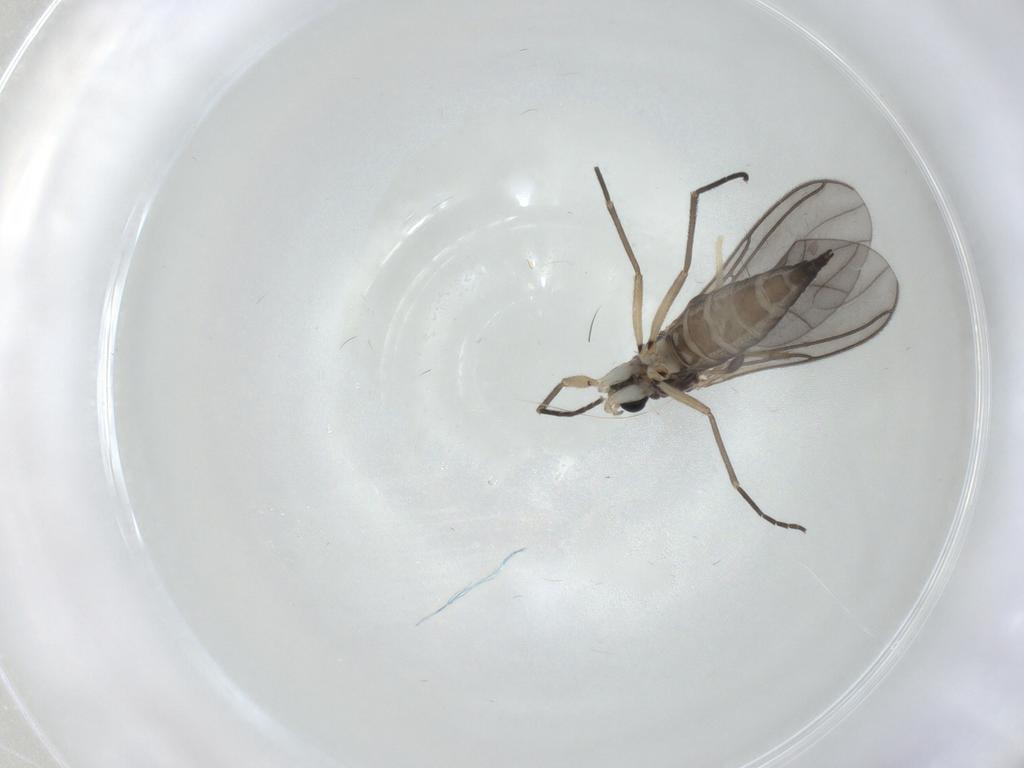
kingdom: Animalia
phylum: Arthropoda
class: Insecta
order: Diptera
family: Sciaridae
